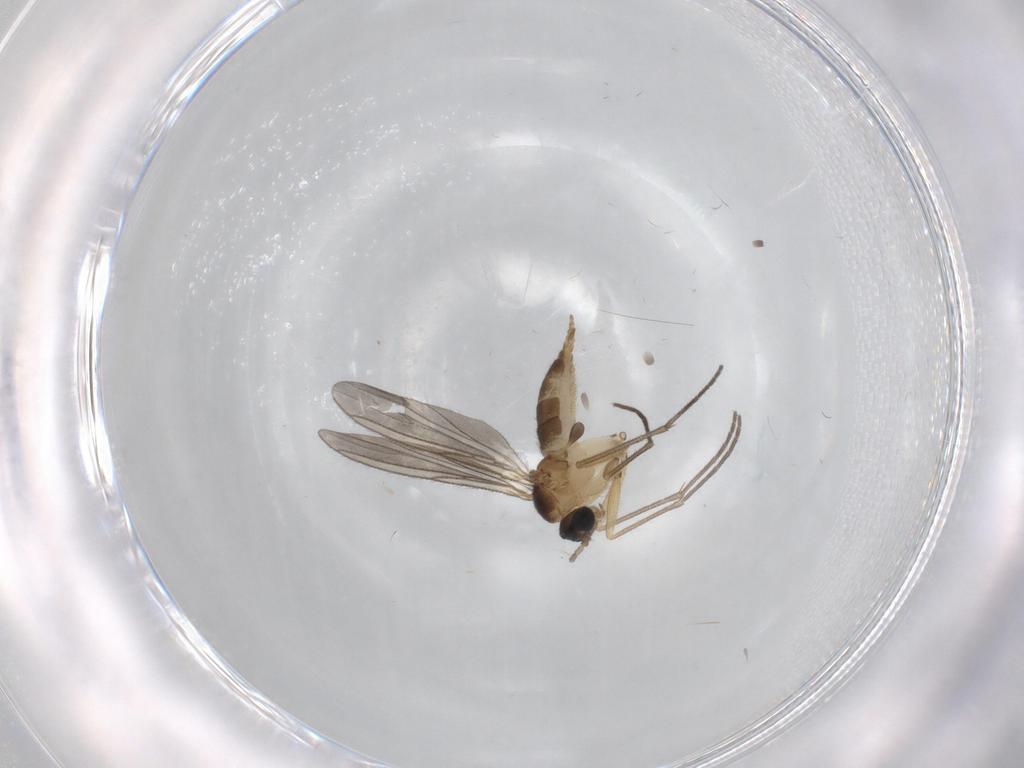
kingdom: Animalia
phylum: Arthropoda
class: Insecta
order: Diptera
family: Sciaridae
